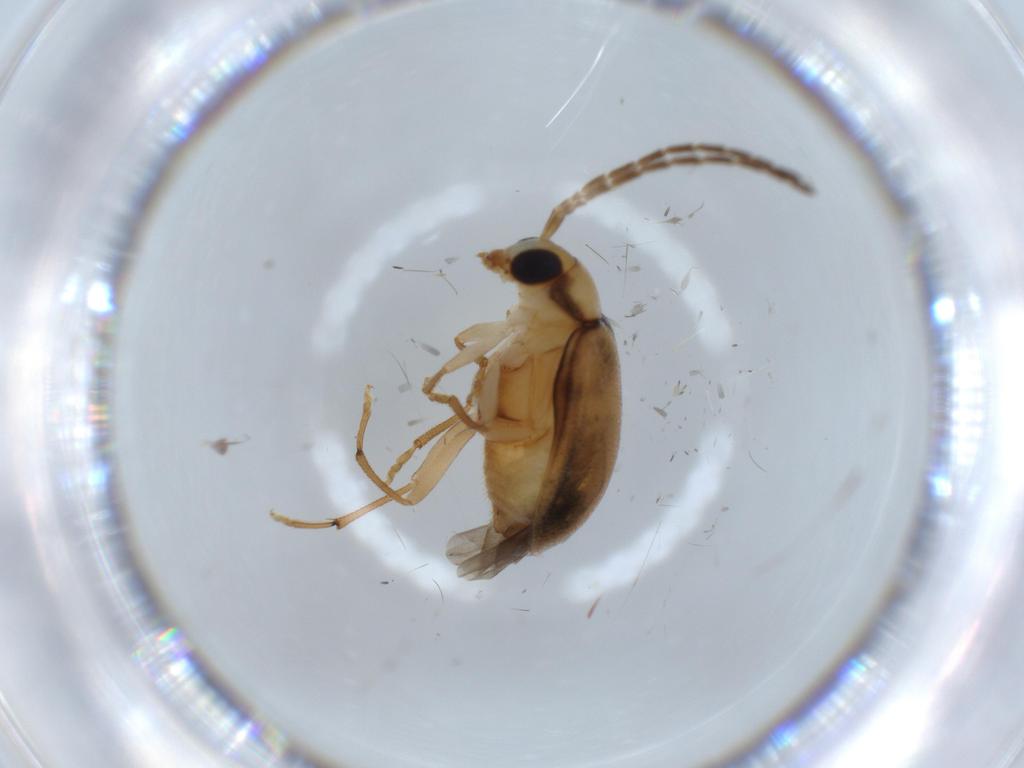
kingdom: Animalia
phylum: Arthropoda
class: Insecta
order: Coleoptera
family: Chrysomelidae
